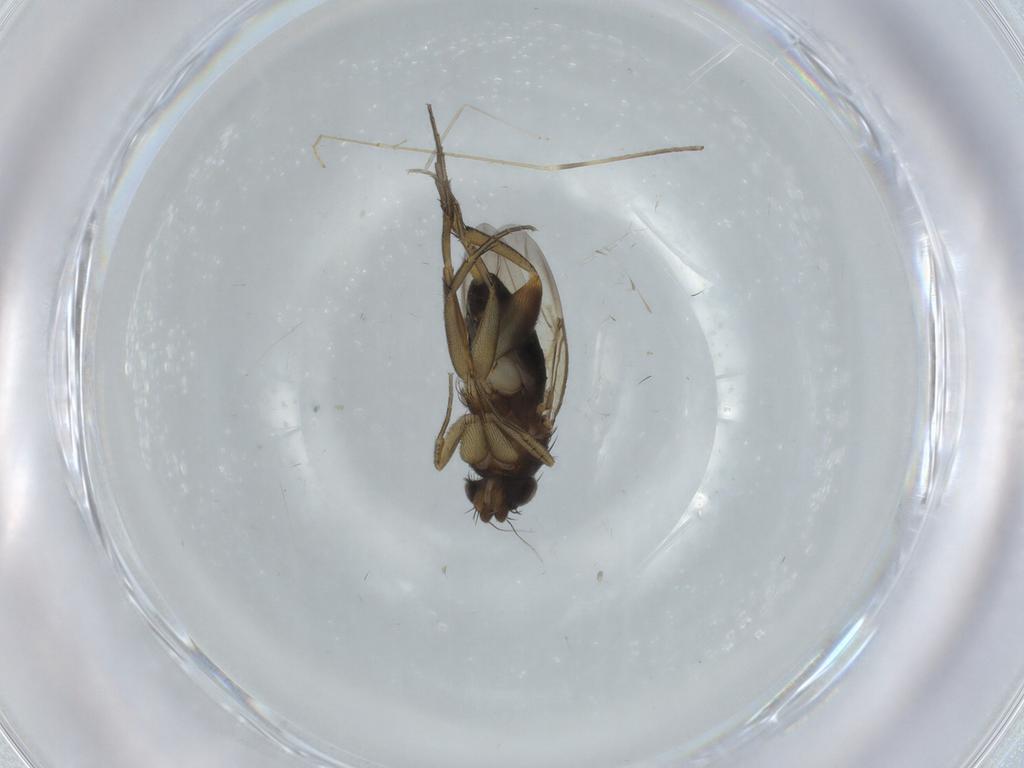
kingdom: Animalia
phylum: Arthropoda
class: Insecta
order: Diptera
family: Phoridae
